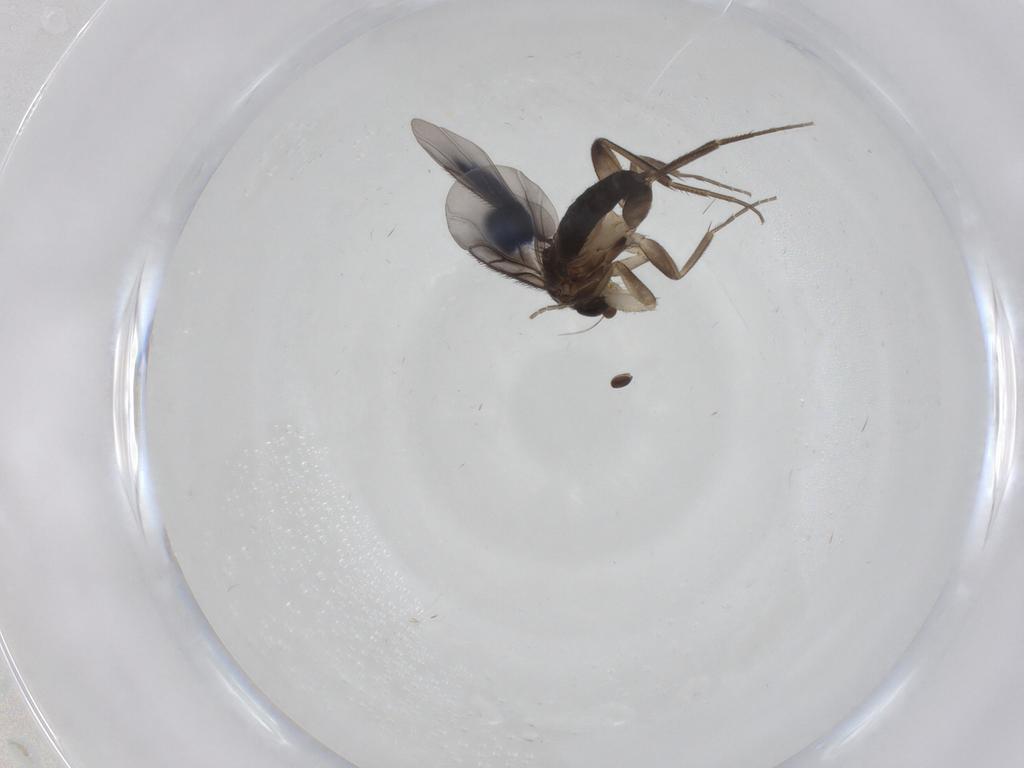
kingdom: Animalia
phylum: Arthropoda
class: Insecta
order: Diptera
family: Phoridae
